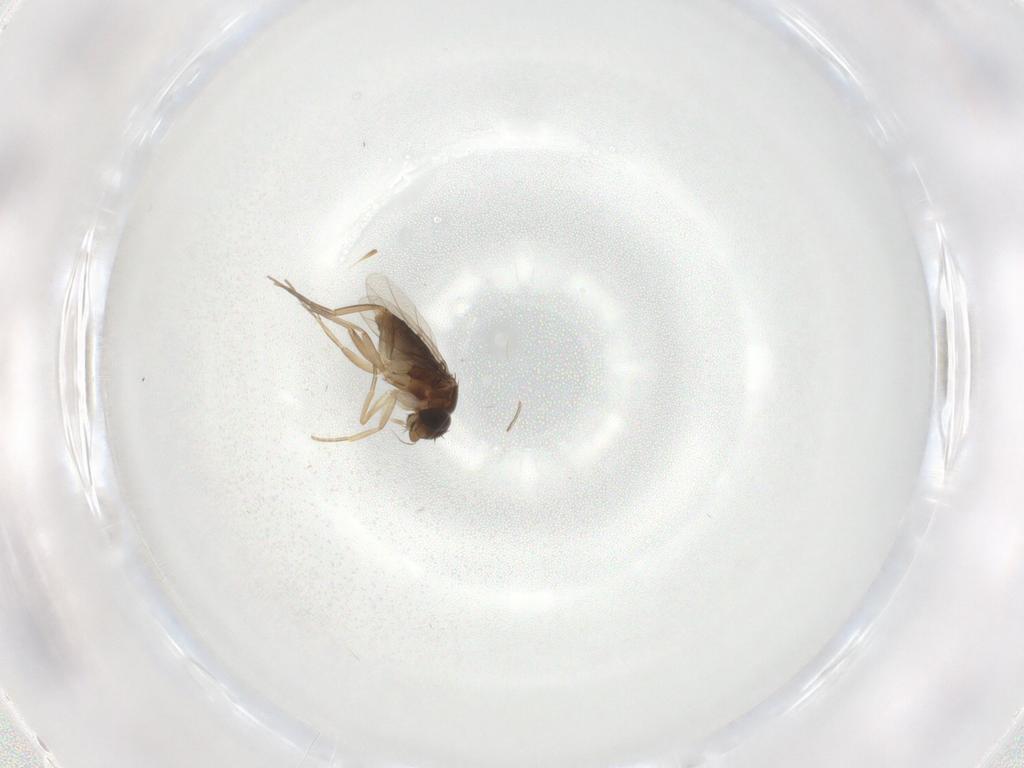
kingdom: Animalia
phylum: Arthropoda
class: Insecta
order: Diptera
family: Phoridae
